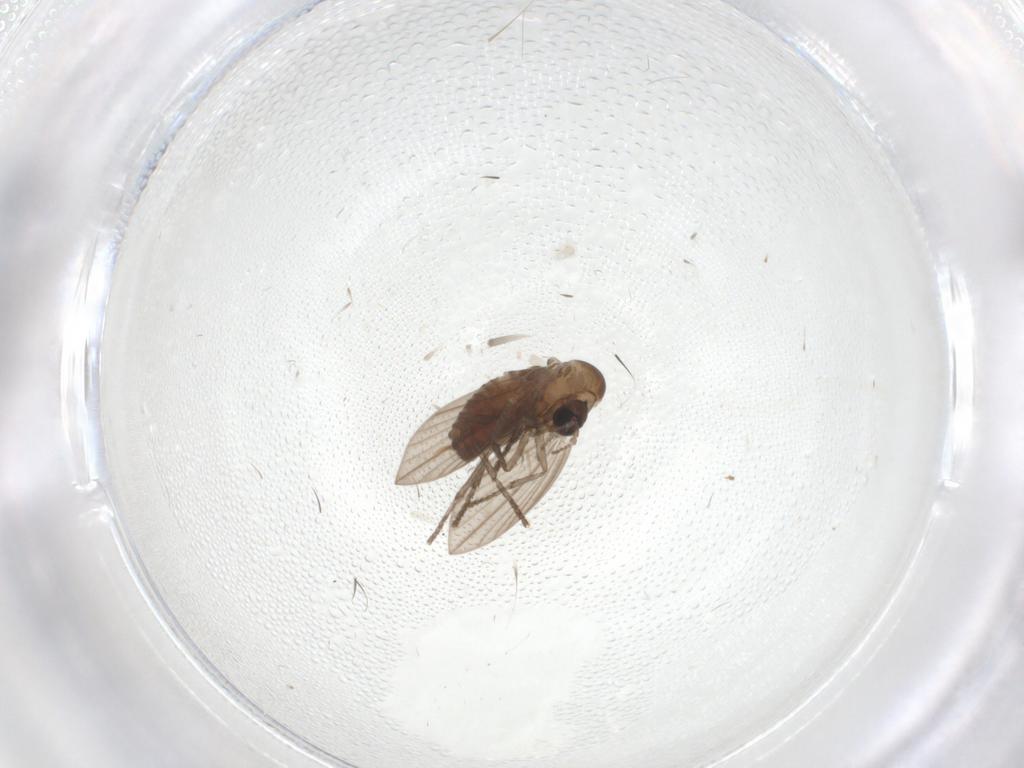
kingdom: Animalia
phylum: Arthropoda
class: Insecta
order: Diptera
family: Psychodidae
